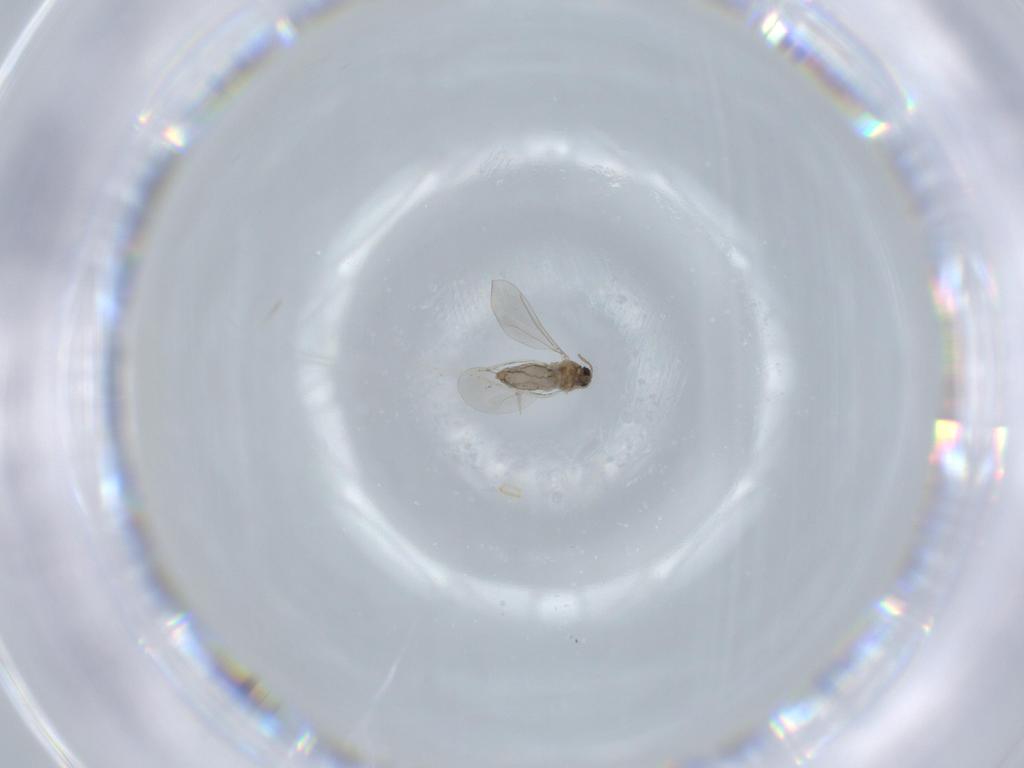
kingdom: Animalia
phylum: Arthropoda
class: Insecta
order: Diptera
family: Cecidomyiidae
